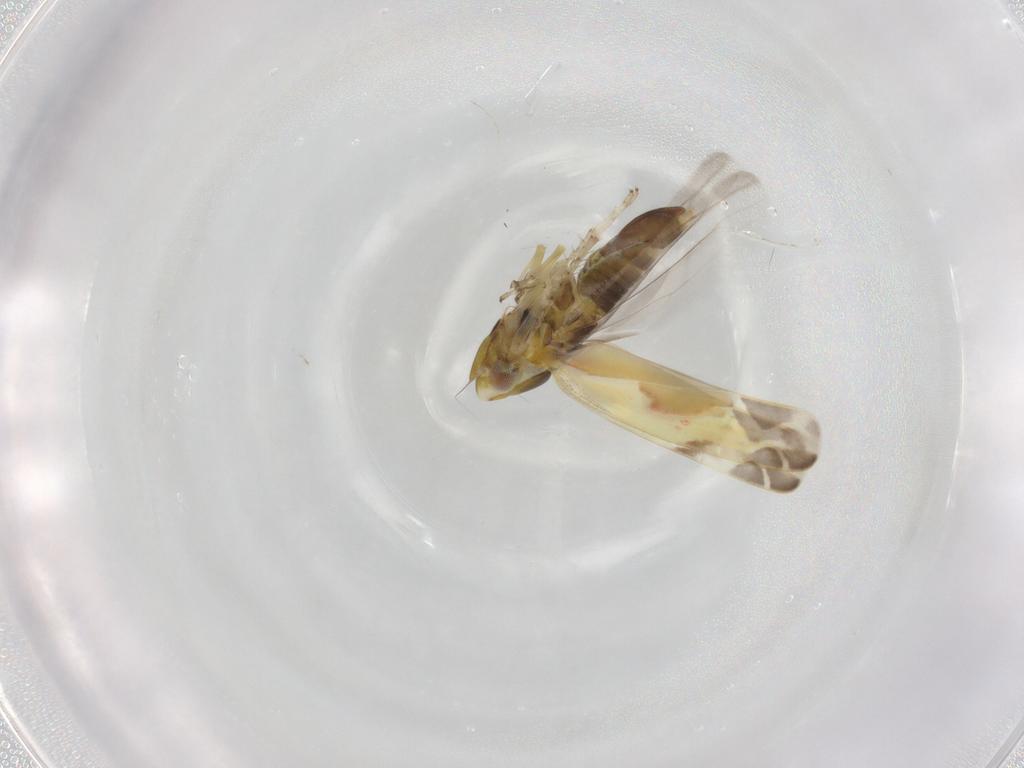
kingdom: Animalia
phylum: Arthropoda
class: Insecta
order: Hemiptera
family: Cicadellidae
